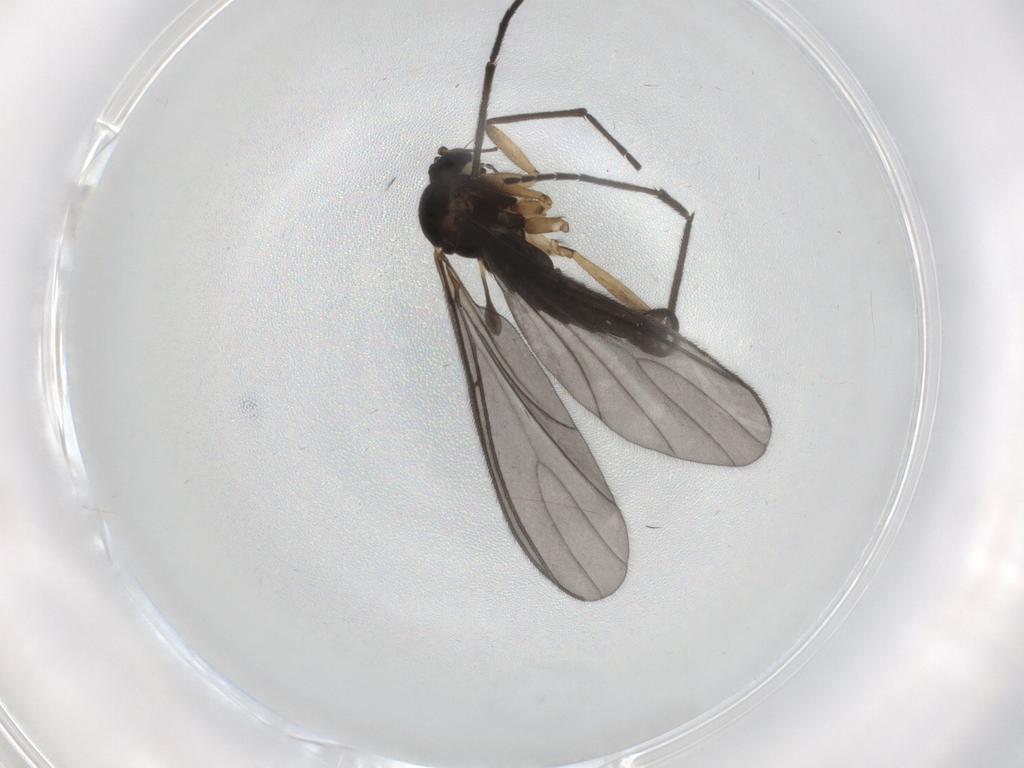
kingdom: Animalia
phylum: Arthropoda
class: Insecta
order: Diptera
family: Sciaridae
